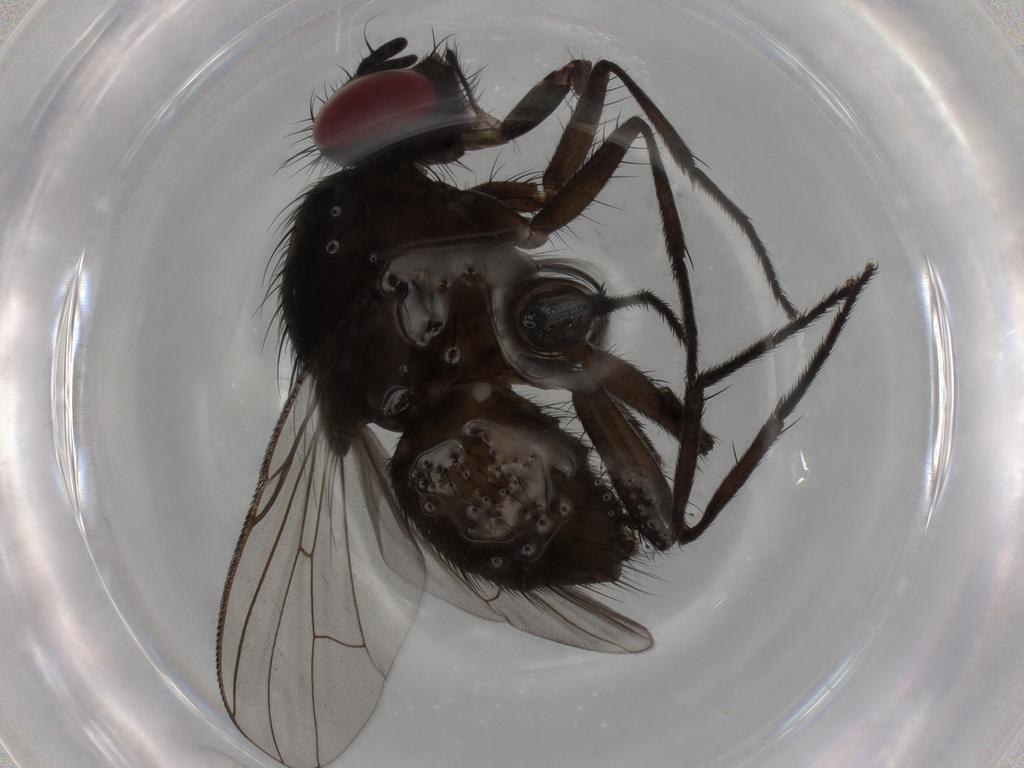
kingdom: Animalia
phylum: Arthropoda
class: Insecta
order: Diptera
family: Muscidae
